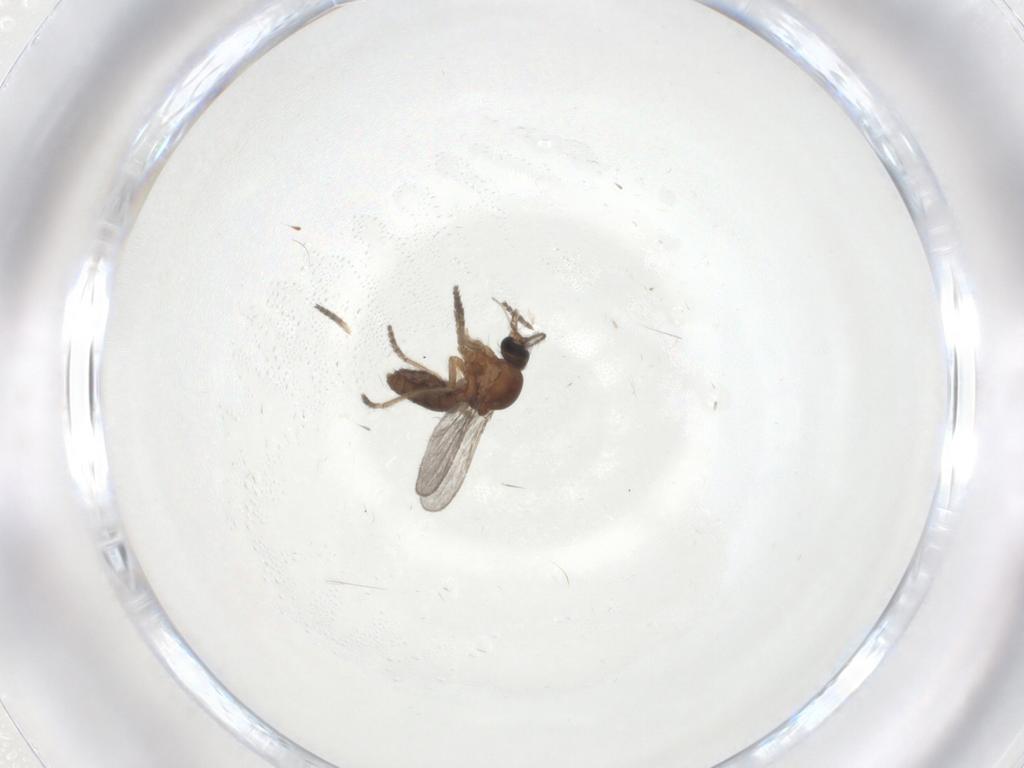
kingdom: Animalia
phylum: Arthropoda
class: Insecta
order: Diptera
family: Ceratopogonidae
